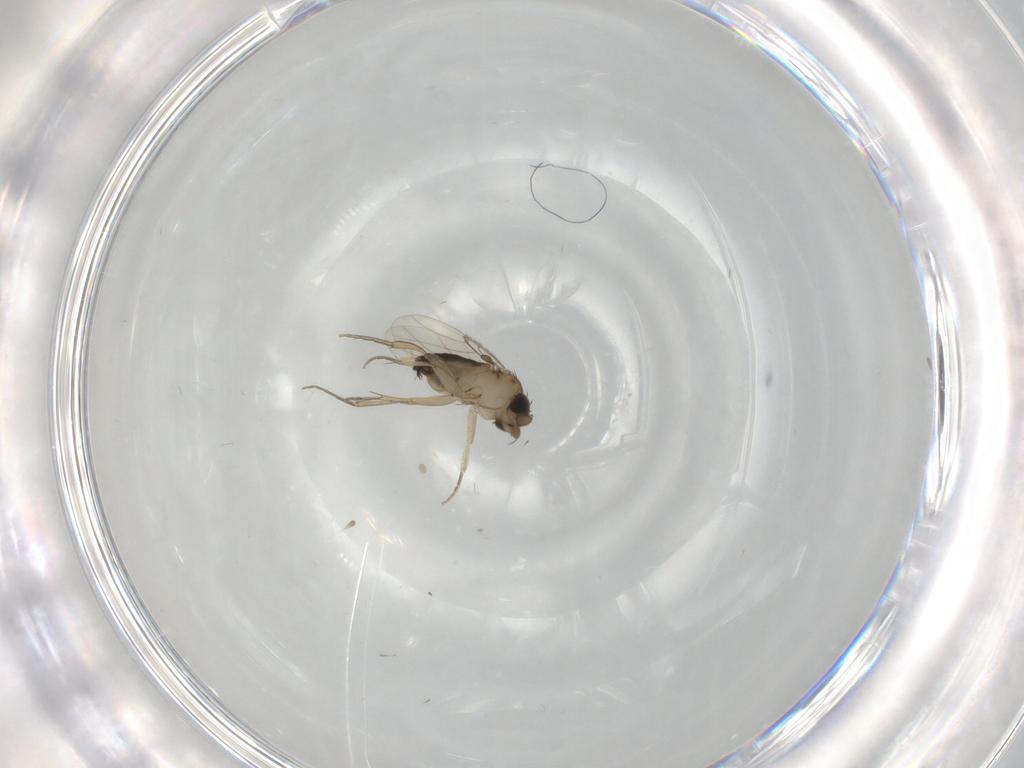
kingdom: Animalia
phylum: Arthropoda
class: Insecta
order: Diptera
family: Phoridae
